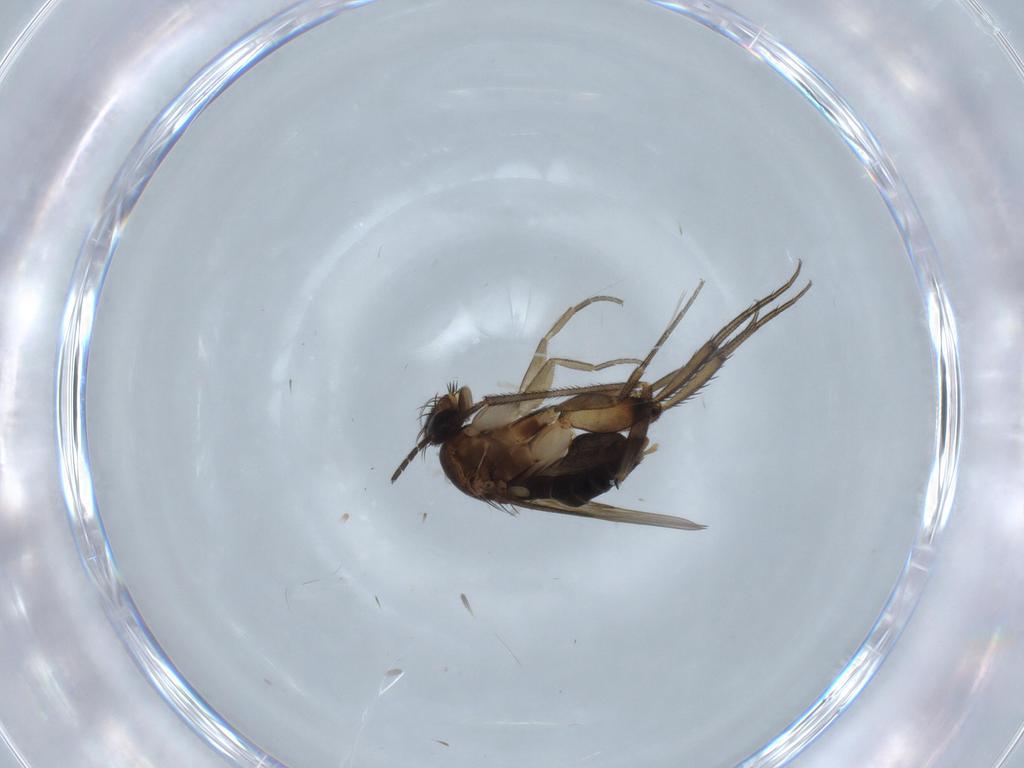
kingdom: Animalia
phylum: Arthropoda
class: Insecta
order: Diptera
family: Phoridae
